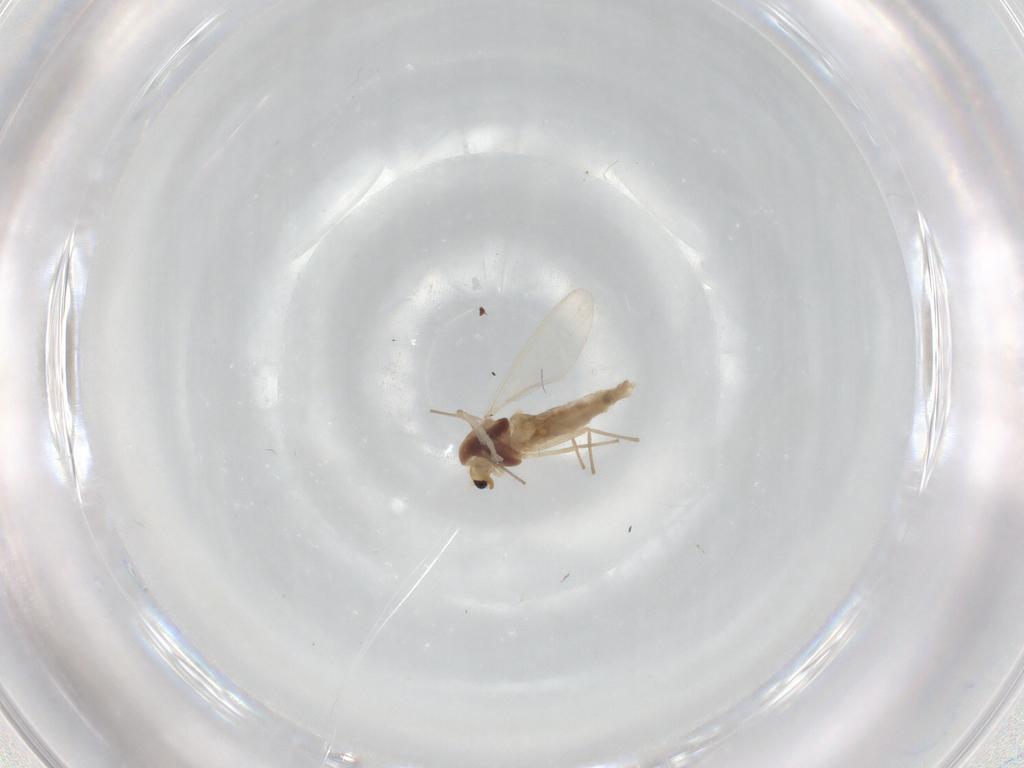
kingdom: Animalia
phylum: Arthropoda
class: Insecta
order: Diptera
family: Chironomidae
